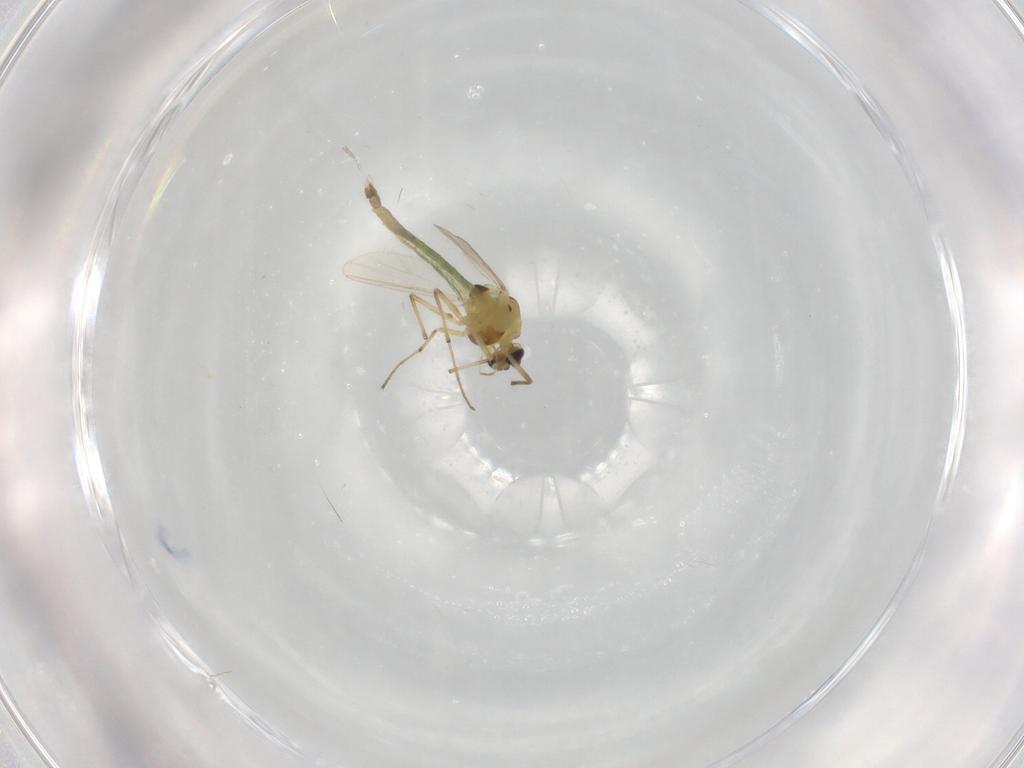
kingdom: Animalia
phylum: Arthropoda
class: Insecta
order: Diptera
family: Chironomidae
